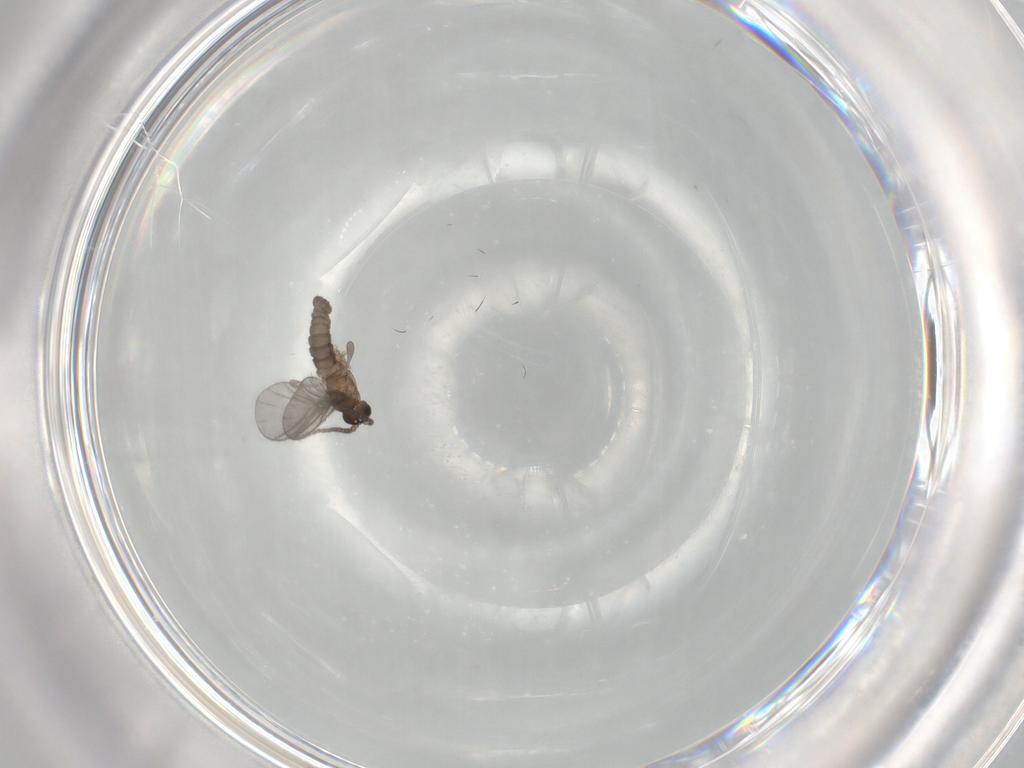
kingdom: Animalia
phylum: Arthropoda
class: Insecta
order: Diptera
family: Sciaridae
